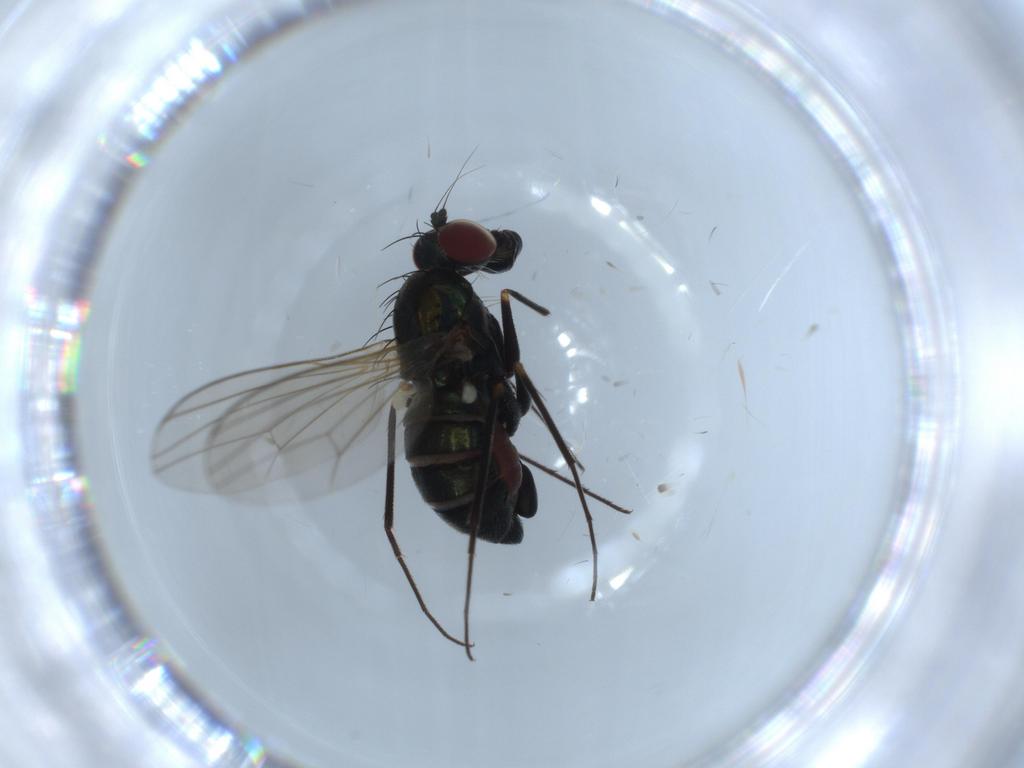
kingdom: Animalia
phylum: Arthropoda
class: Insecta
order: Diptera
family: Dolichopodidae
